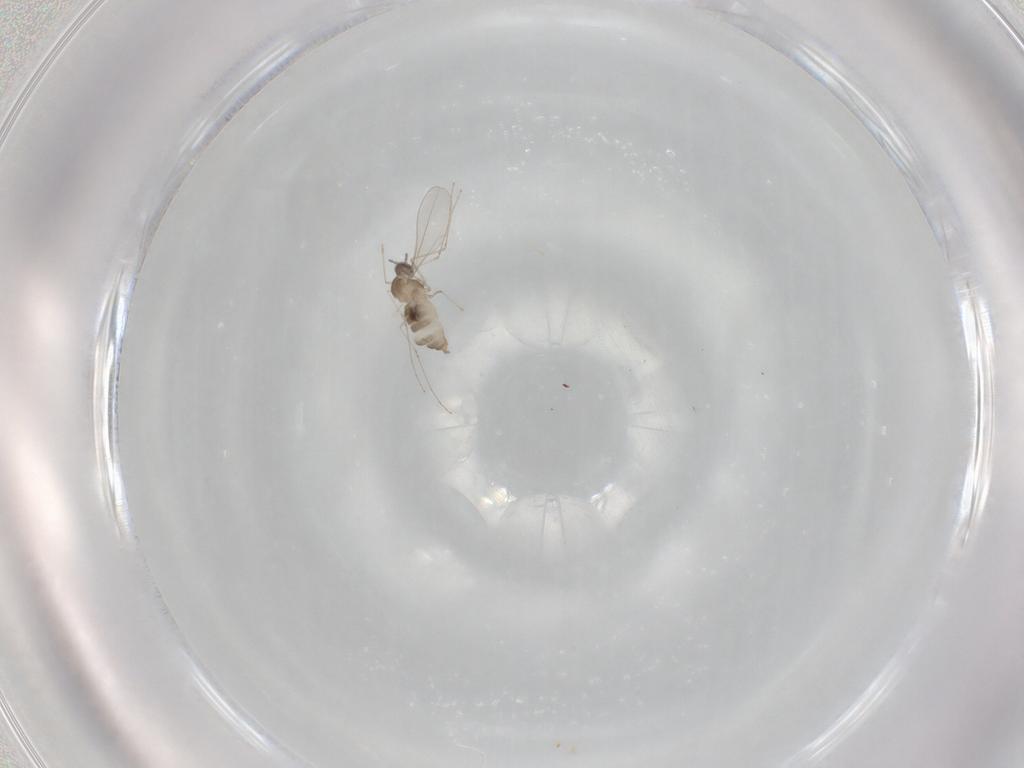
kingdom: Animalia
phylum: Arthropoda
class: Insecta
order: Diptera
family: Cecidomyiidae
